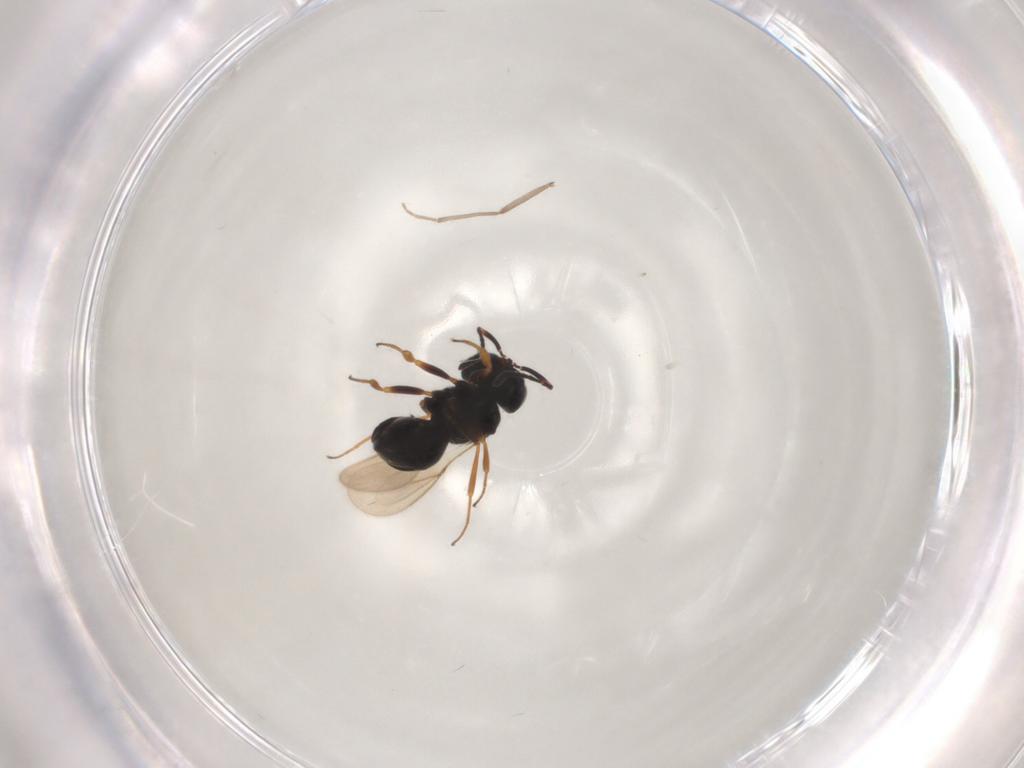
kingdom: Animalia
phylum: Arthropoda
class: Insecta
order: Hymenoptera
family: Scelionidae
